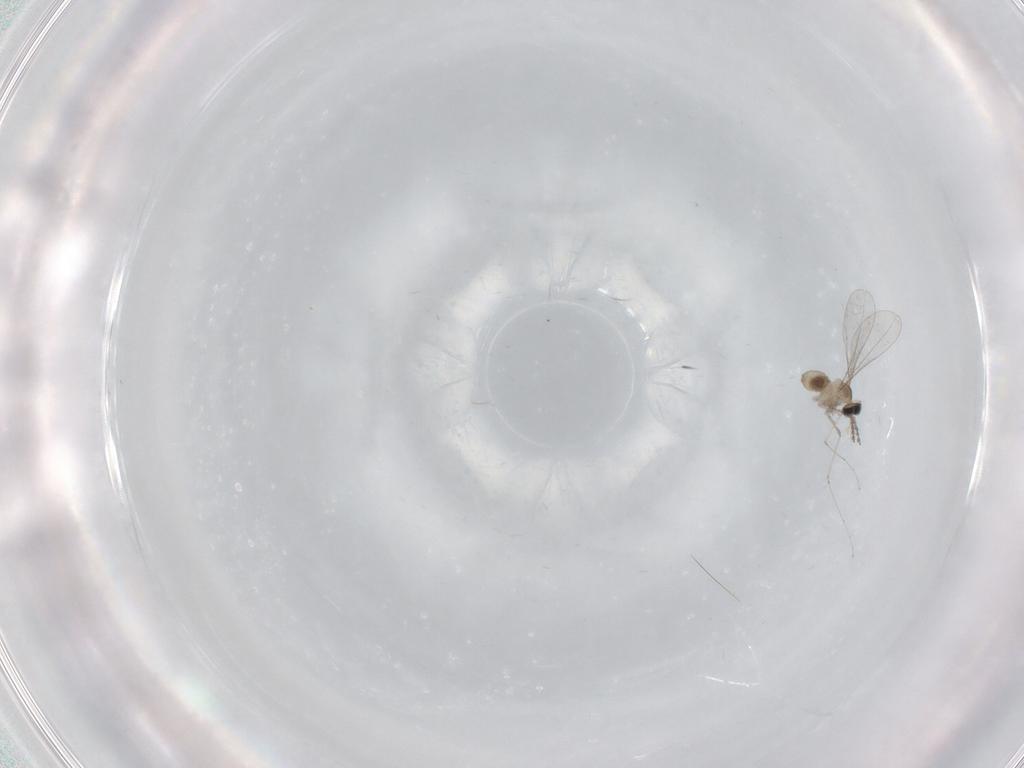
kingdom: Animalia
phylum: Arthropoda
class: Insecta
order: Diptera
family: Cecidomyiidae
